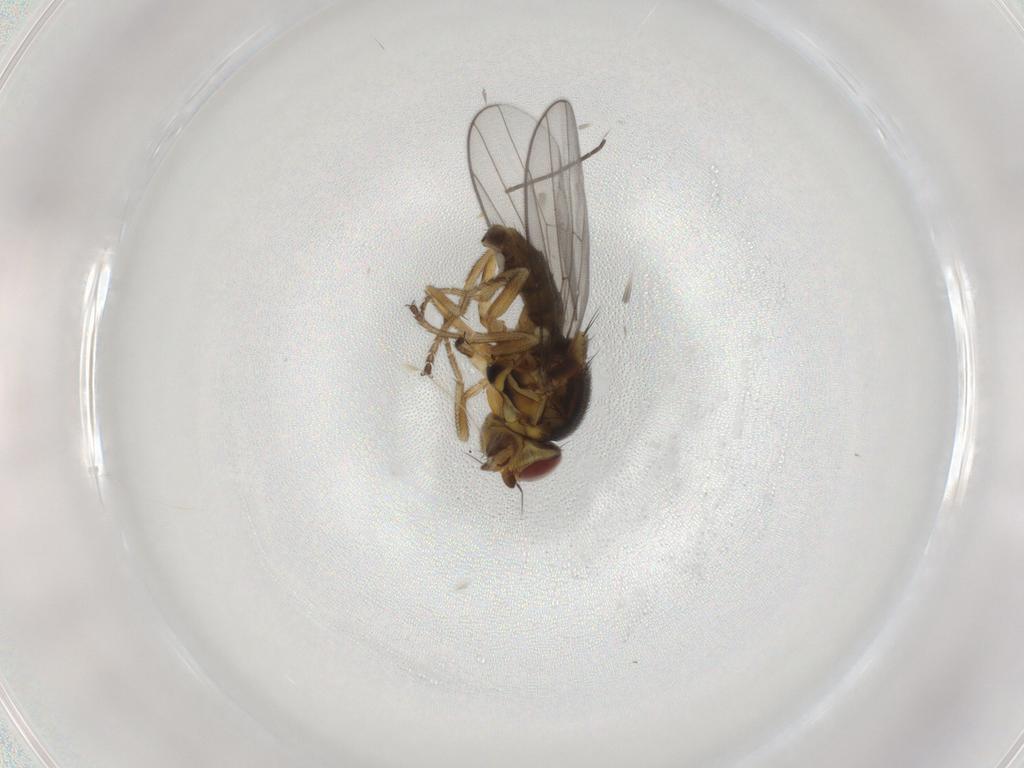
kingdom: Animalia
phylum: Arthropoda
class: Insecta
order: Diptera
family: Chloropidae
